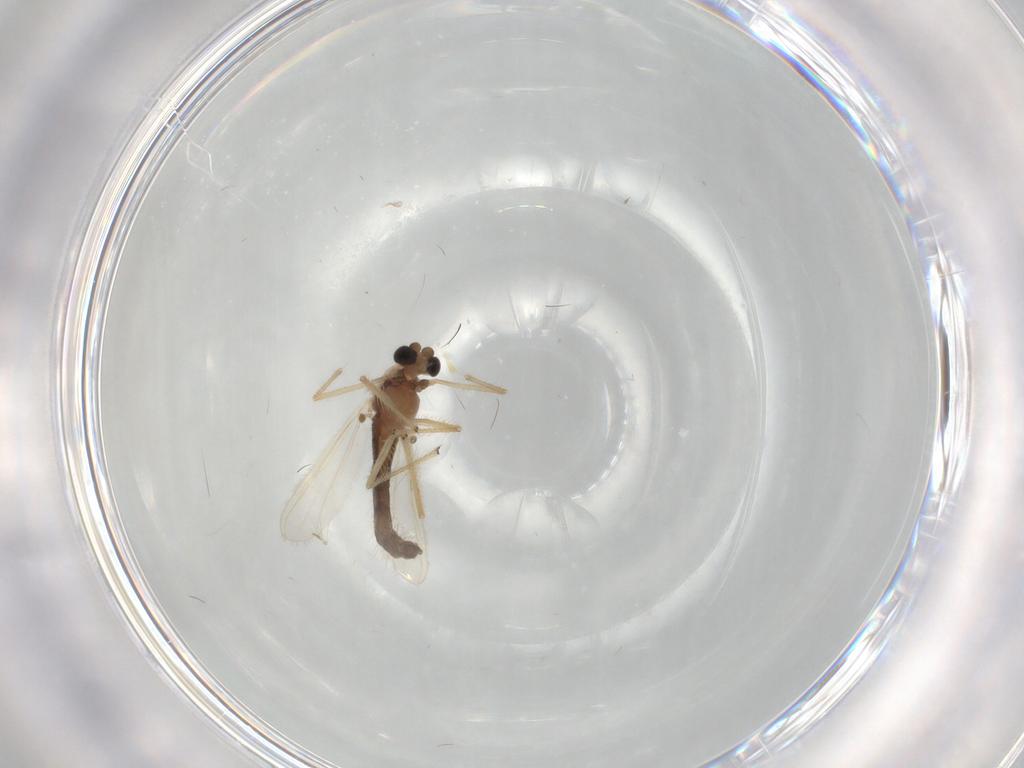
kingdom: Animalia
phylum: Arthropoda
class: Insecta
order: Diptera
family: Chironomidae
